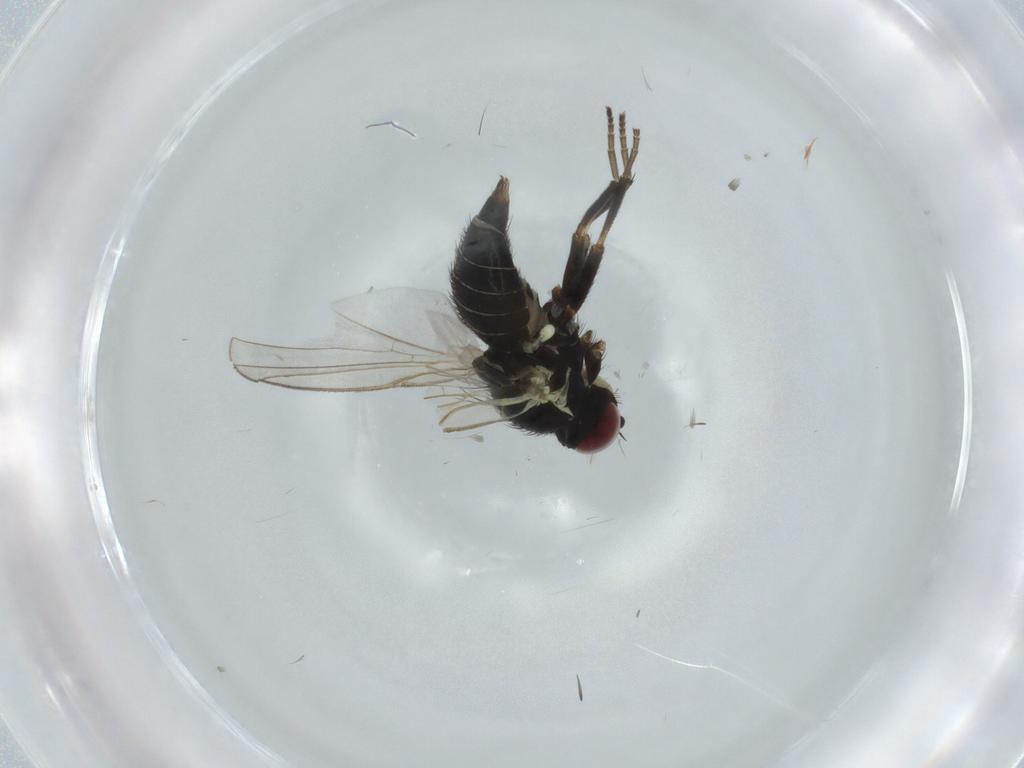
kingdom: Animalia
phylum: Arthropoda
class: Insecta
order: Diptera
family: Agromyzidae
